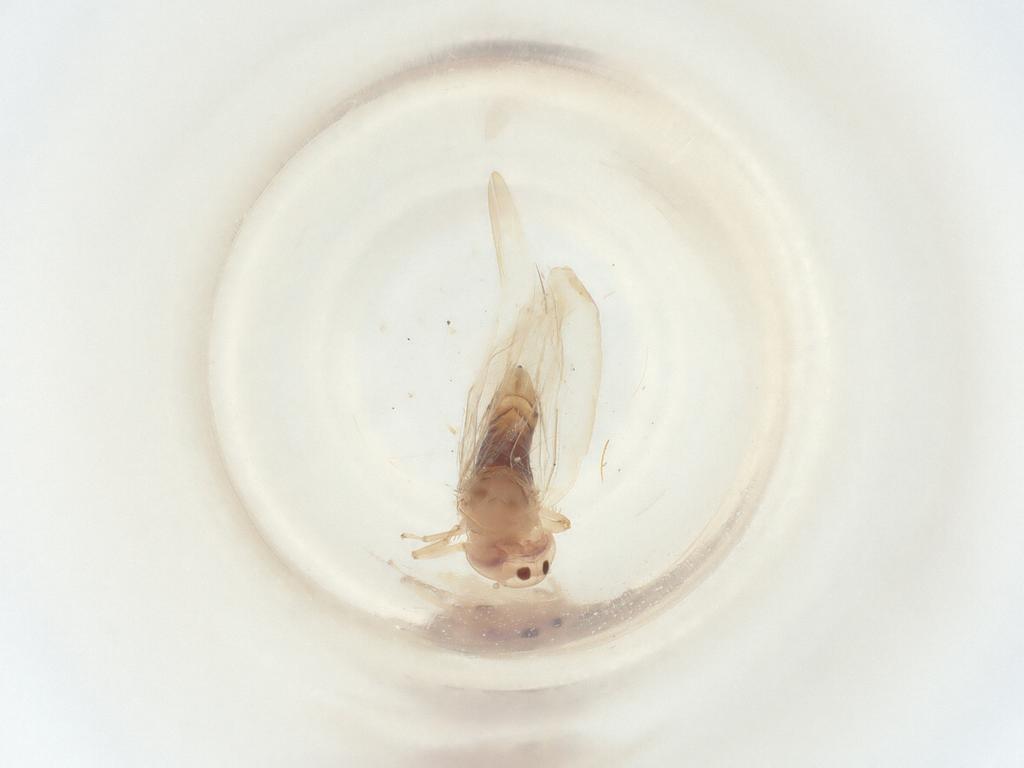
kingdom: Animalia
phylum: Arthropoda
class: Insecta
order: Hemiptera
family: Cicadellidae
